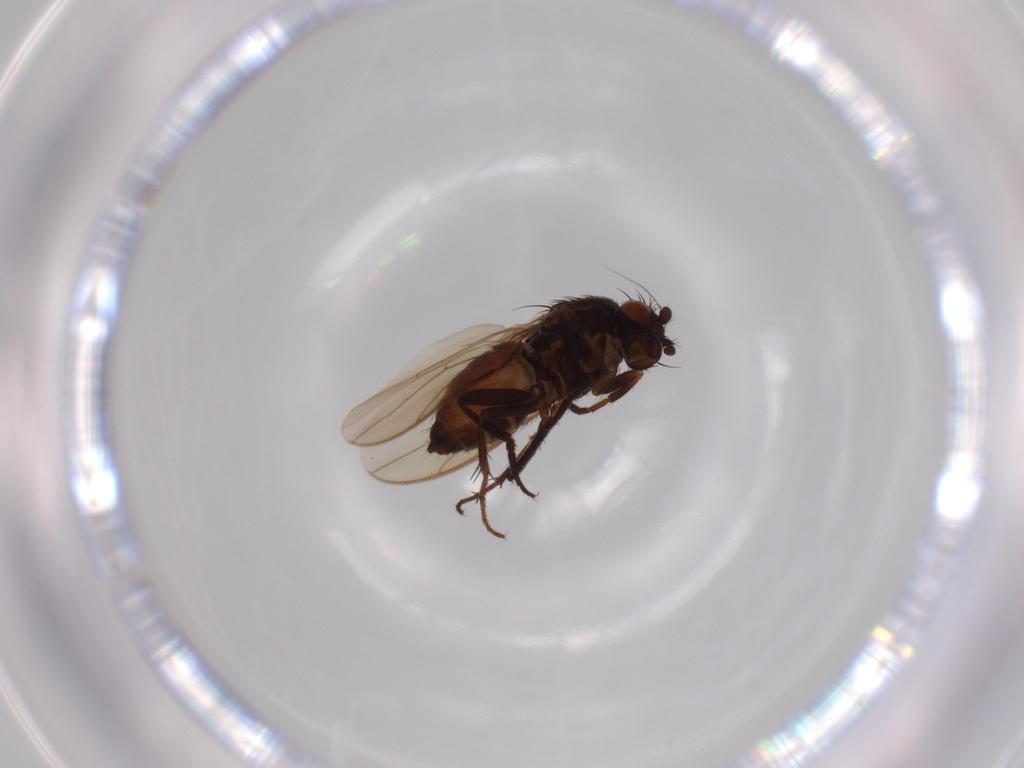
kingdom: Animalia
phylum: Arthropoda
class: Insecta
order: Diptera
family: Sphaeroceridae
